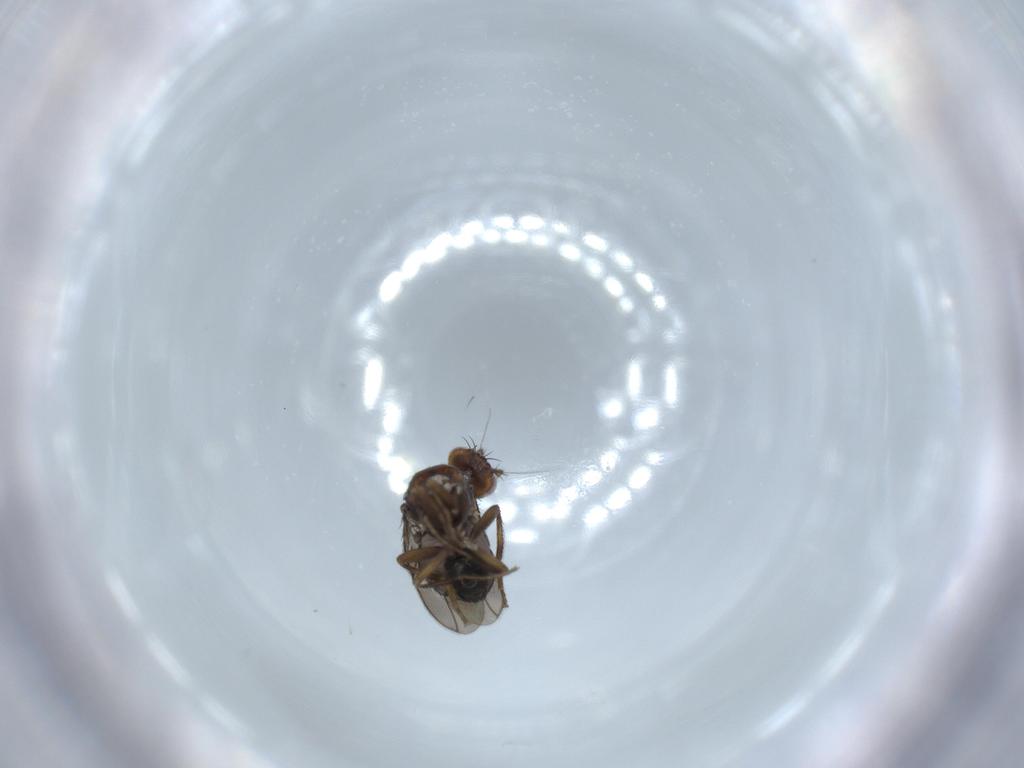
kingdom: Animalia
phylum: Arthropoda
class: Insecta
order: Diptera
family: Sphaeroceridae
